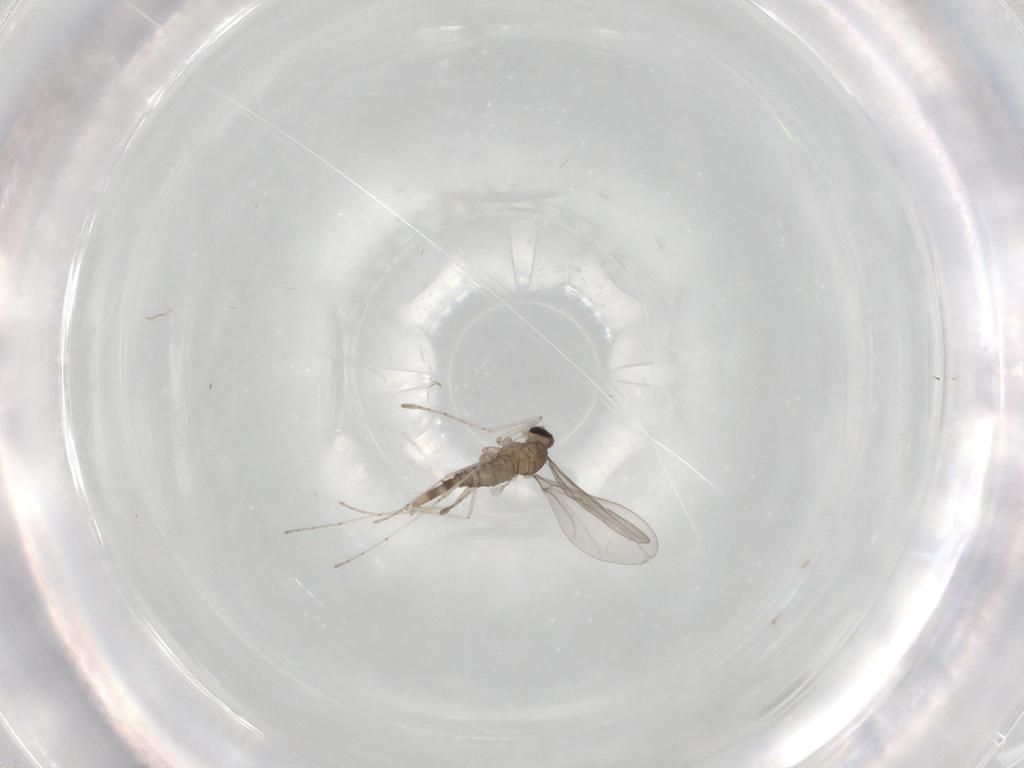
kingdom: Animalia
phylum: Arthropoda
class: Insecta
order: Diptera
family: Cecidomyiidae
